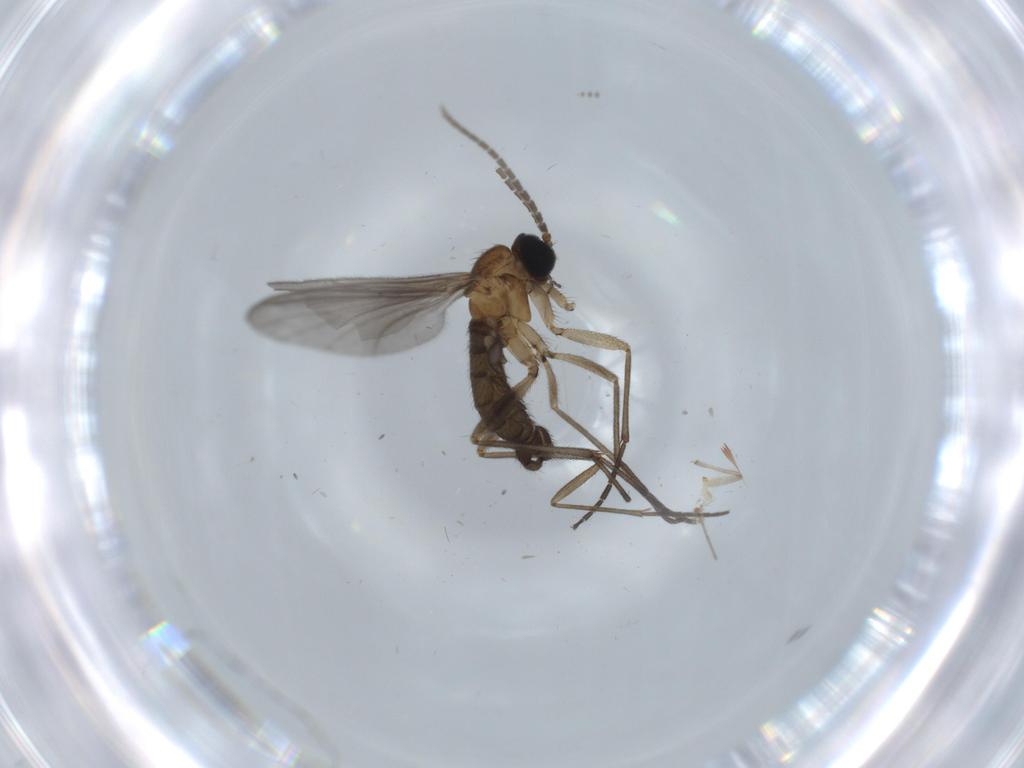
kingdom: Animalia
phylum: Arthropoda
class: Insecta
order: Diptera
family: Sciaridae
